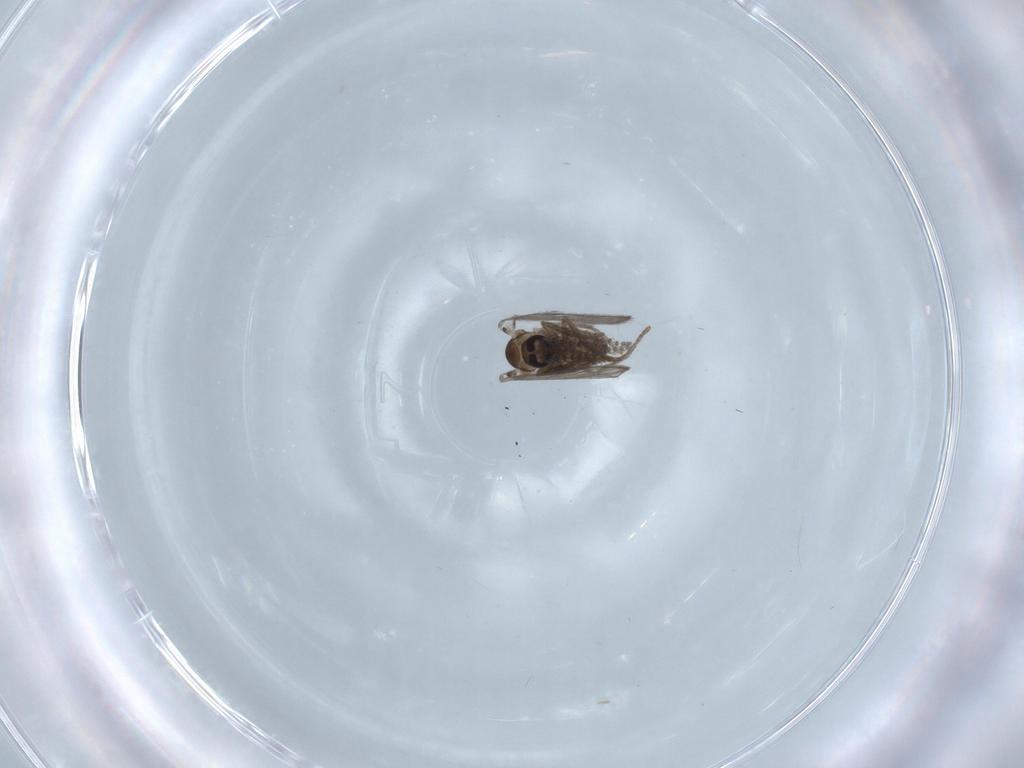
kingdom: Animalia
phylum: Arthropoda
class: Insecta
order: Diptera
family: Psychodidae
